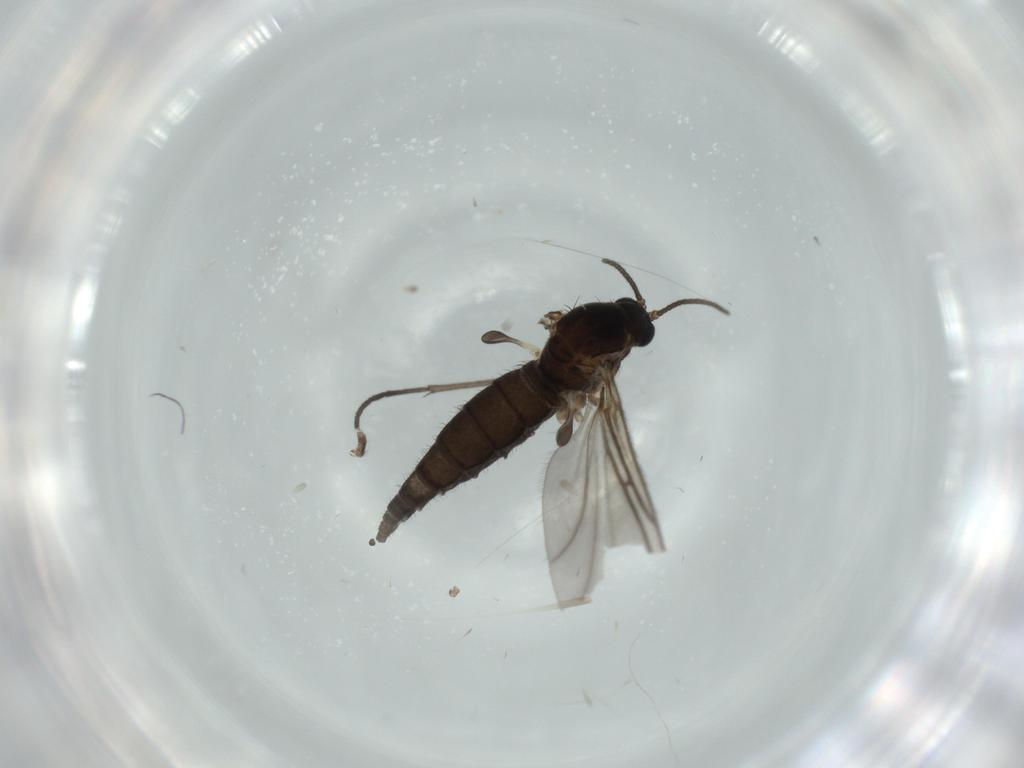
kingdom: Animalia
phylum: Arthropoda
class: Insecta
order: Diptera
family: Sciaridae
